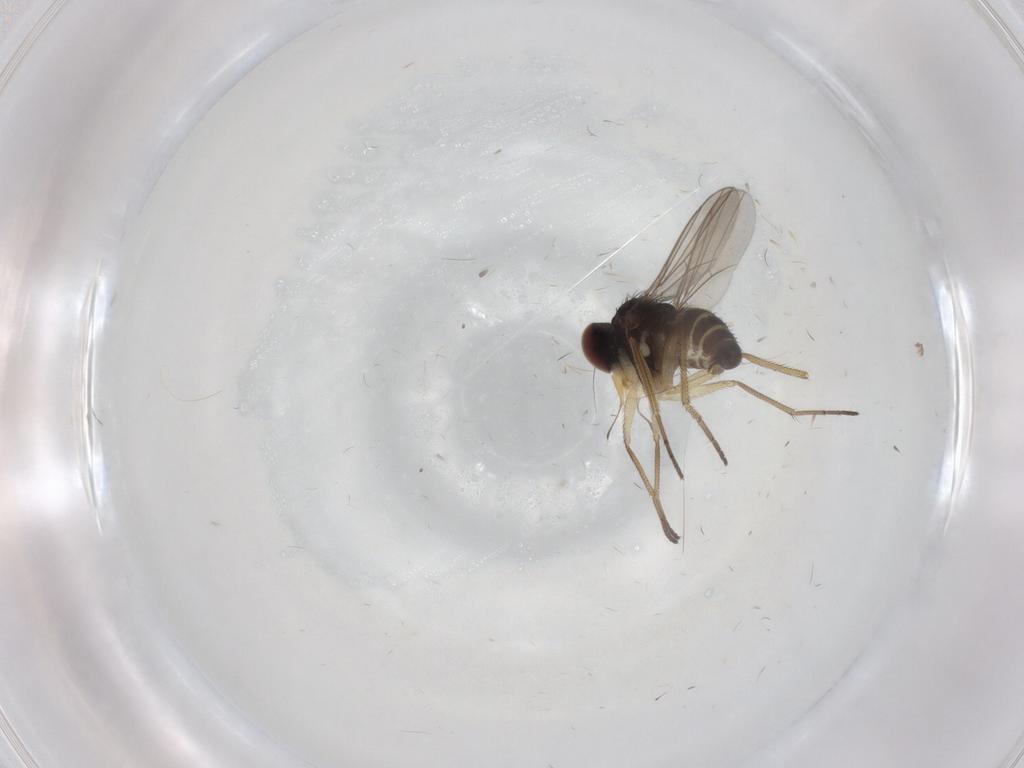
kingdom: Animalia
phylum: Arthropoda
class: Insecta
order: Diptera
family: Dolichopodidae
